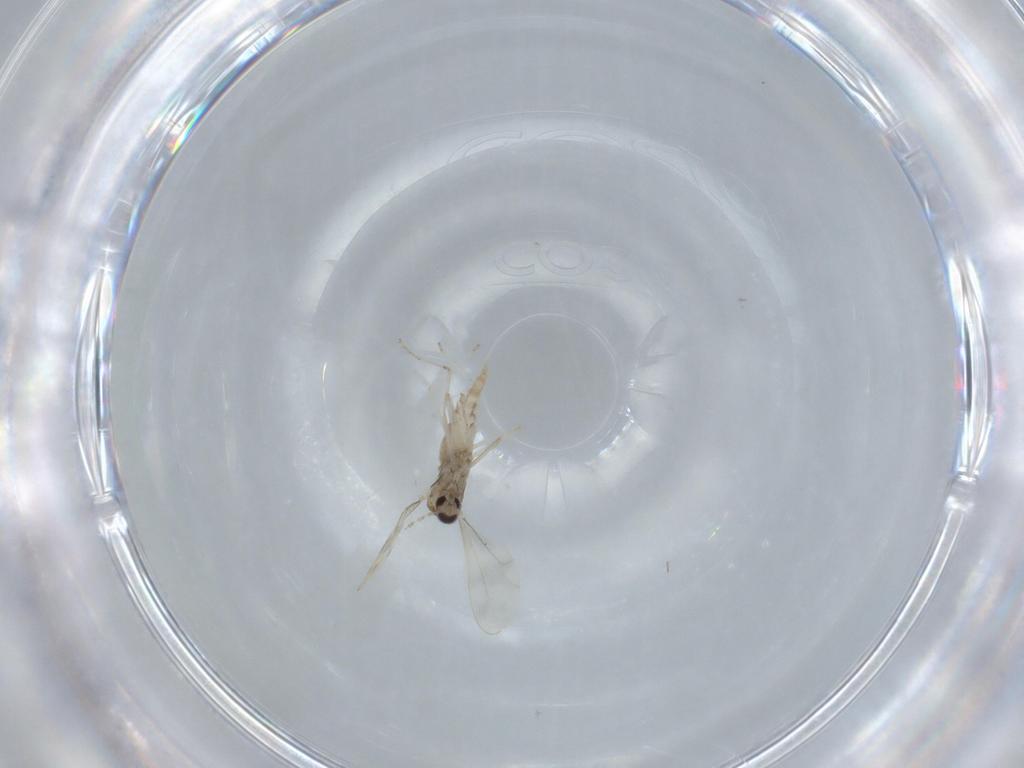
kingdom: Animalia
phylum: Arthropoda
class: Insecta
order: Diptera
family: Cecidomyiidae
